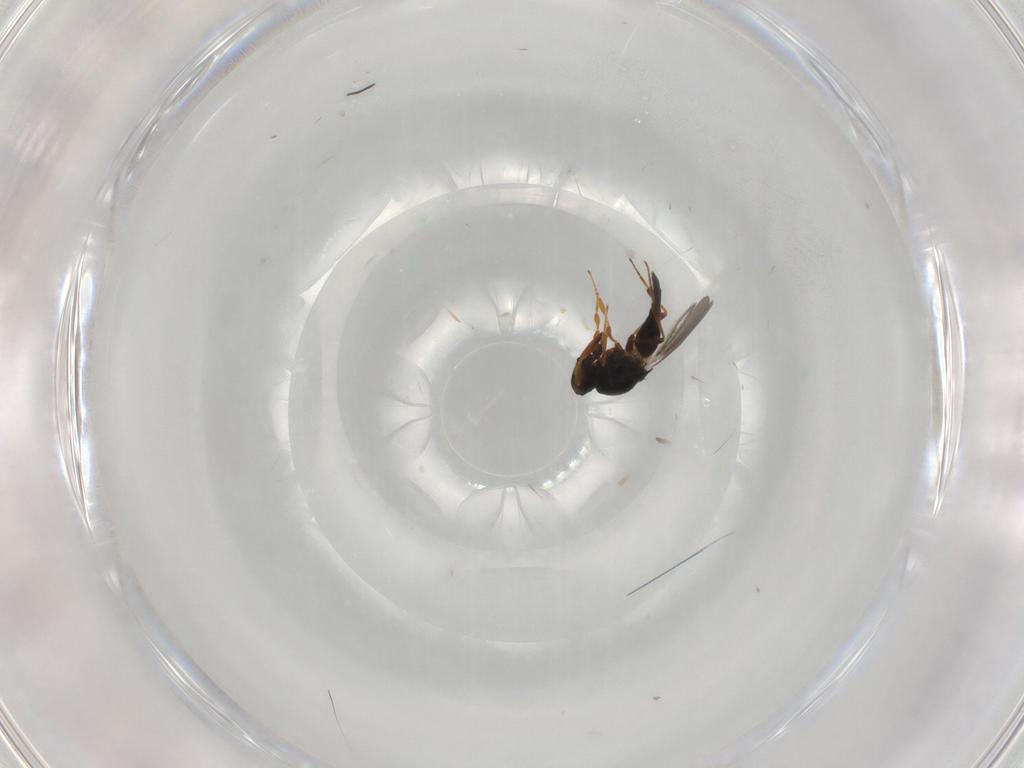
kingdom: Animalia
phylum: Arthropoda
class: Insecta
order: Hymenoptera
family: Platygastridae
